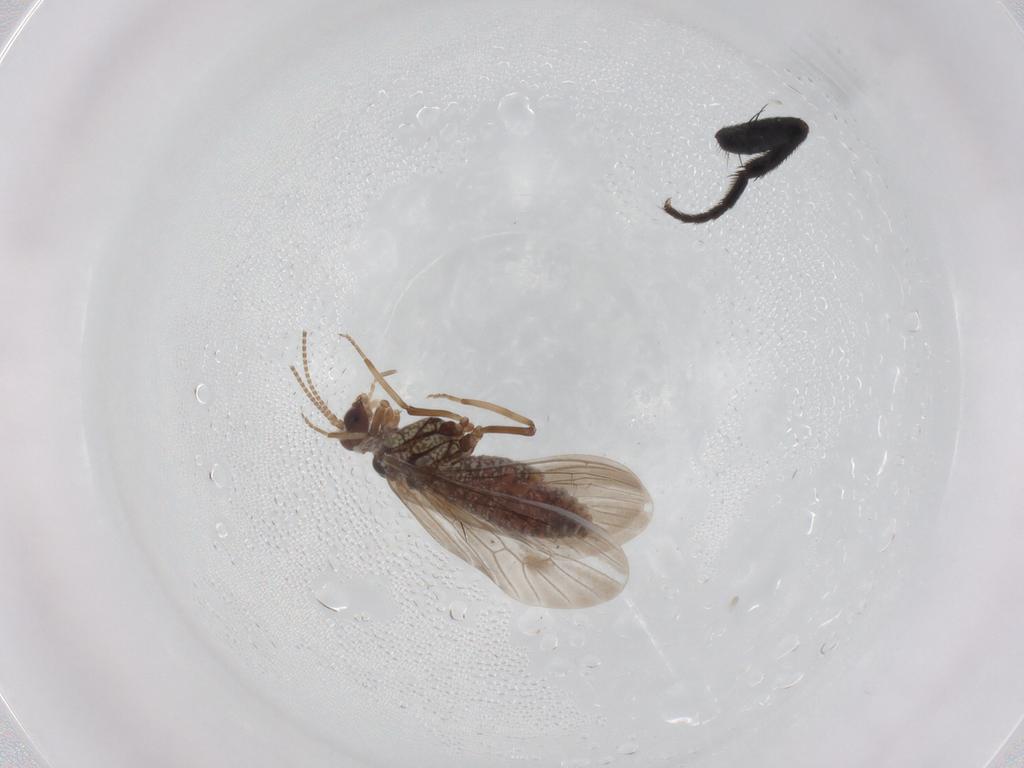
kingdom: Animalia
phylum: Arthropoda
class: Insecta
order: Neuroptera
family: Coniopterygidae
